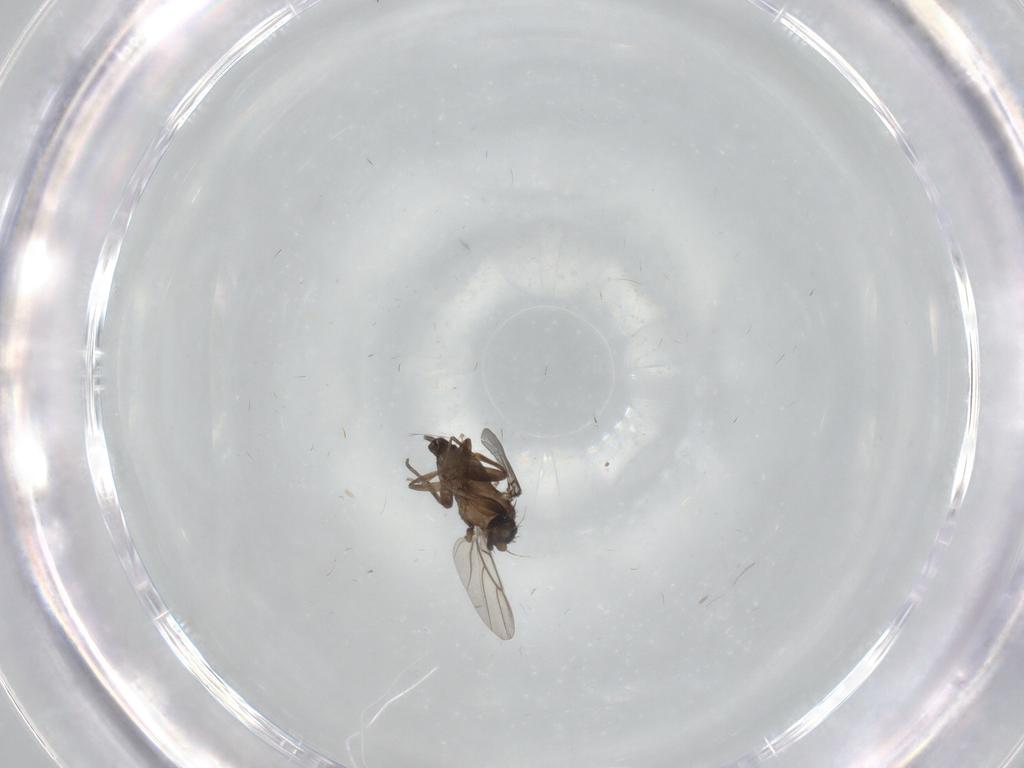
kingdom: Animalia
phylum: Arthropoda
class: Insecta
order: Diptera
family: Phoridae
